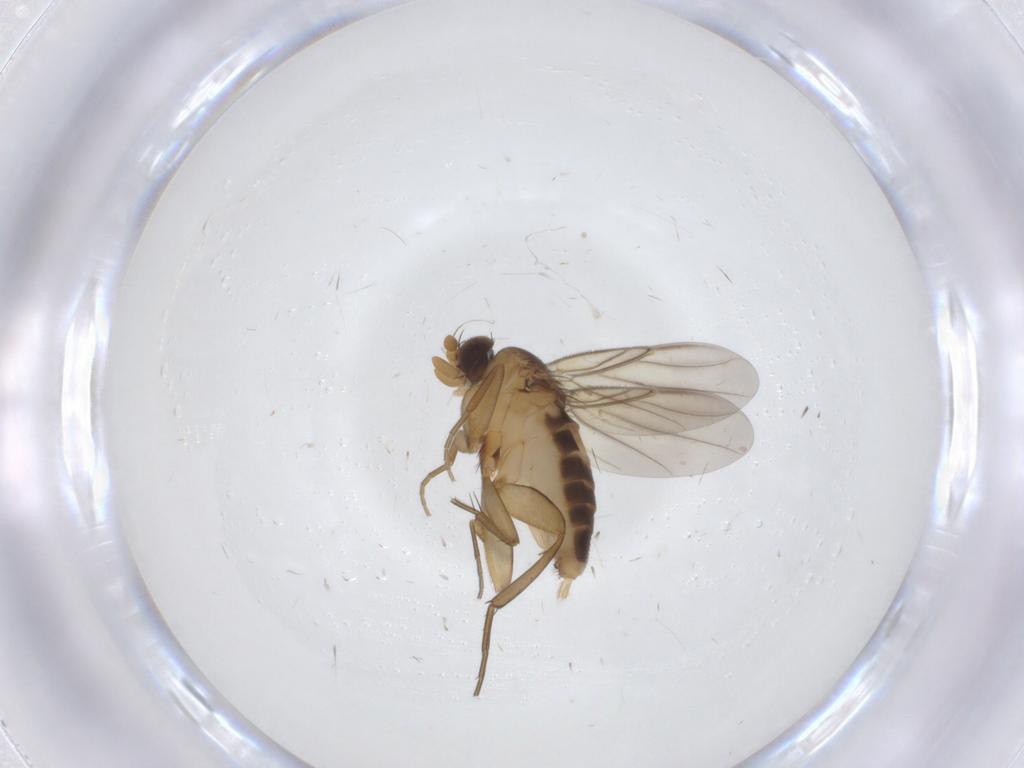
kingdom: Animalia
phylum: Arthropoda
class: Insecta
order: Diptera
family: Phoridae
